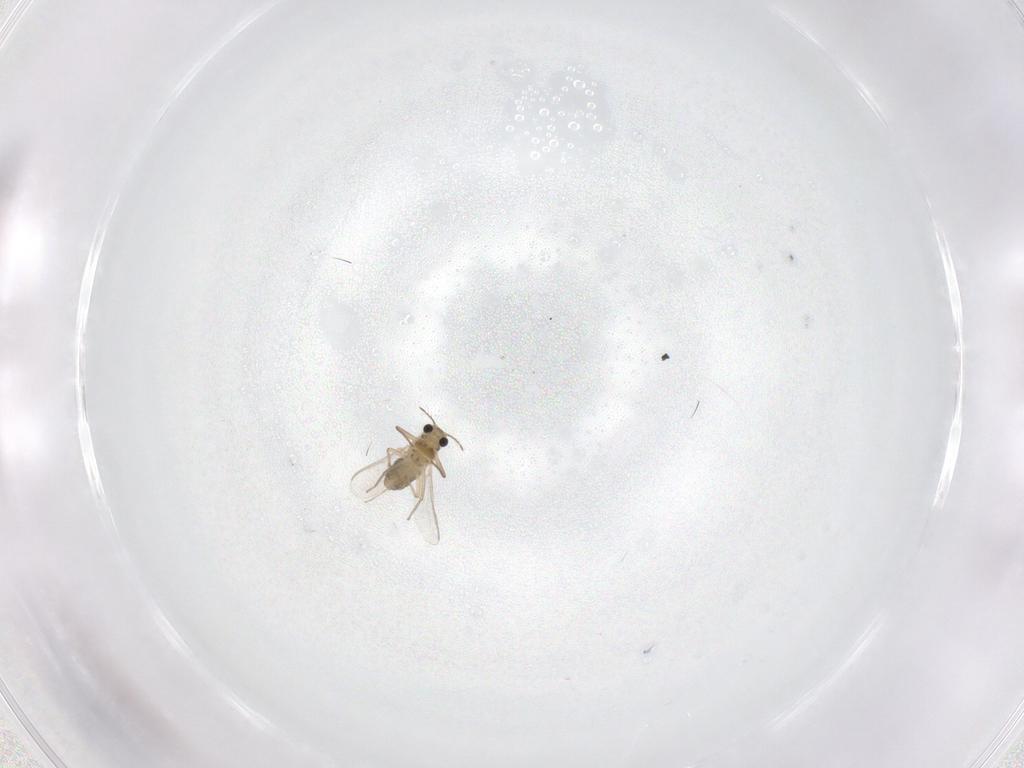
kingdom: Animalia
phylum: Arthropoda
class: Insecta
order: Diptera
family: Chironomidae
